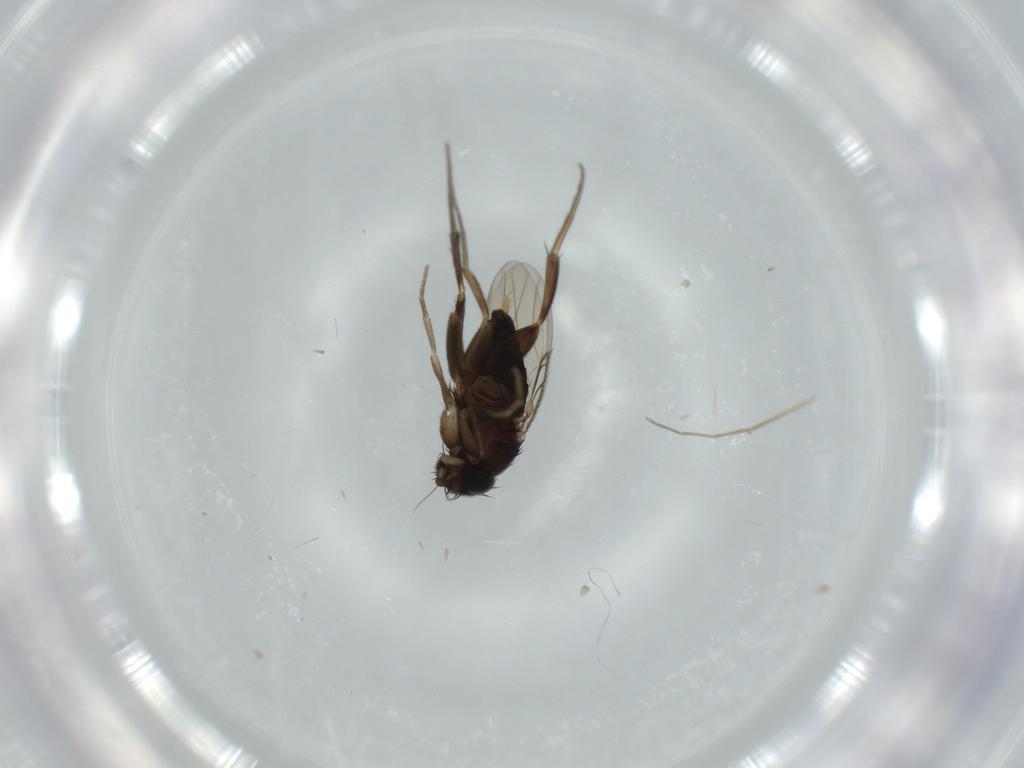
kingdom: Animalia
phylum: Arthropoda
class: Insecta
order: Diptera
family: Phoridae
